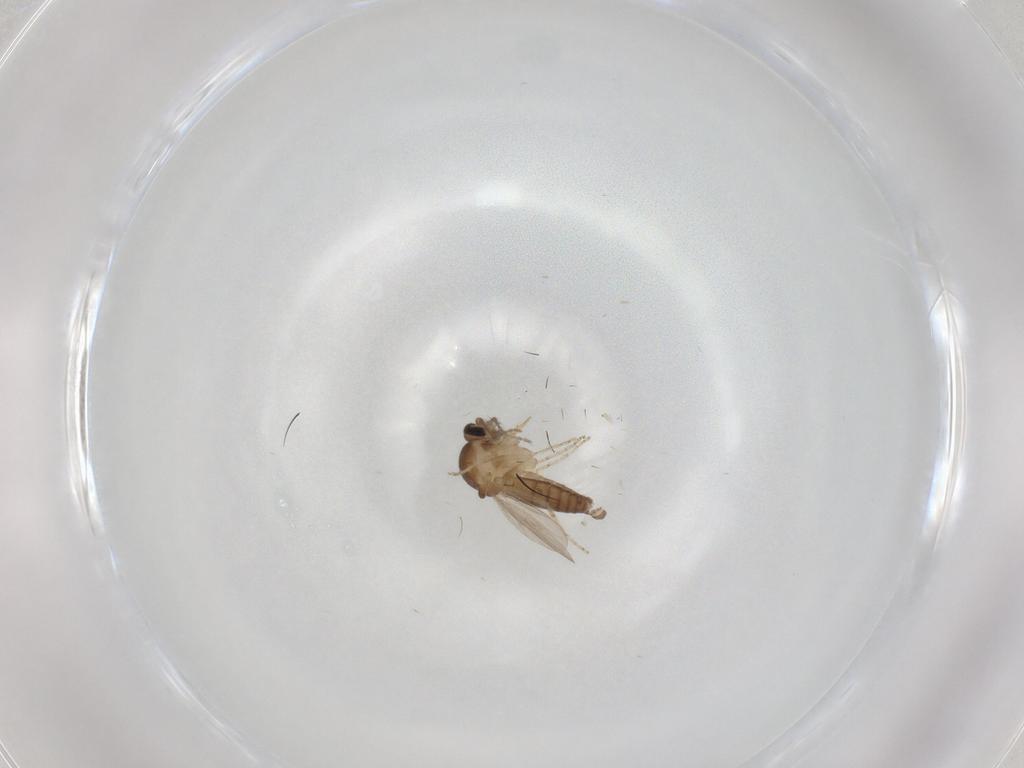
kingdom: Animalia
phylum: Arthropoda
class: Insecta
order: Diptera
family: Ceratopogonidae
